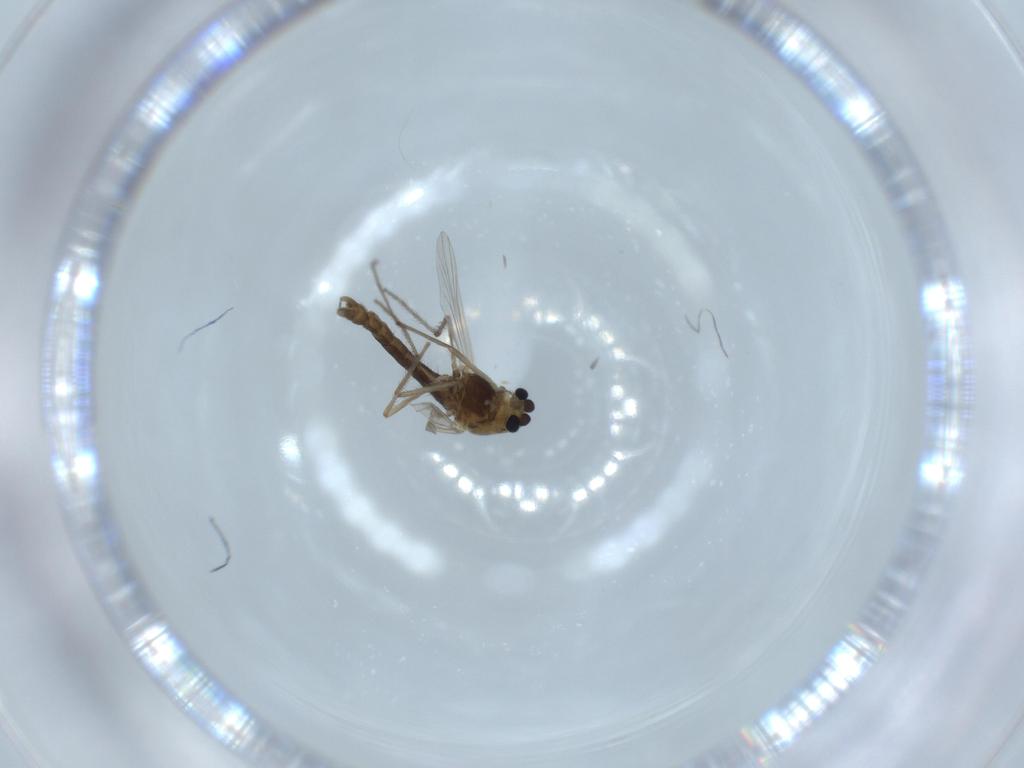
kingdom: Animalia
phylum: Arthropoda
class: Insecta
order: Diptera
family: Chironomidae
